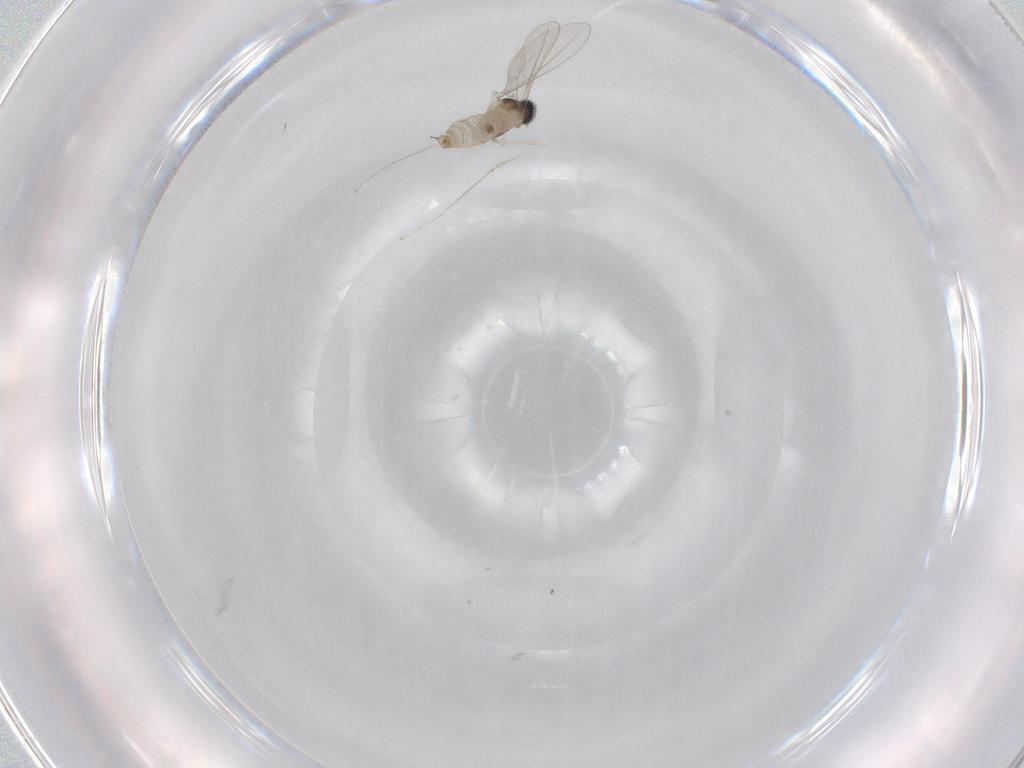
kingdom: Animalia
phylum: Arthropoda
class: Insecta
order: Diptera
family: Cecidomyiidae
